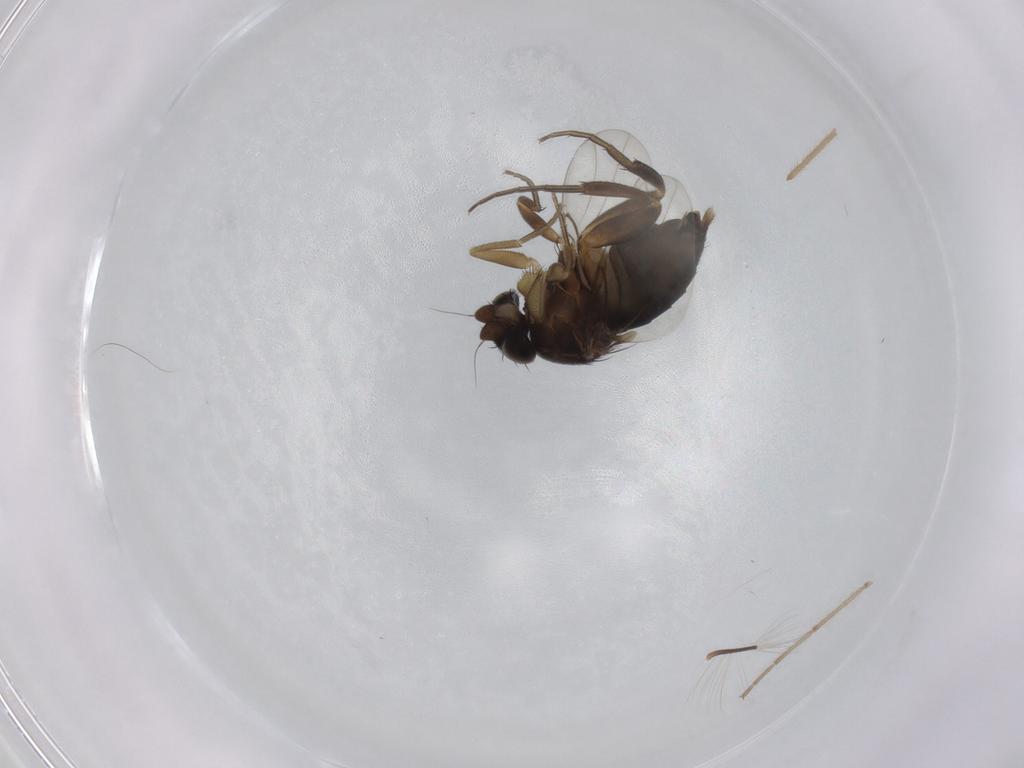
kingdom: Animalia
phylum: Arthropoda
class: Insecta
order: Diptera
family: Phoridae
